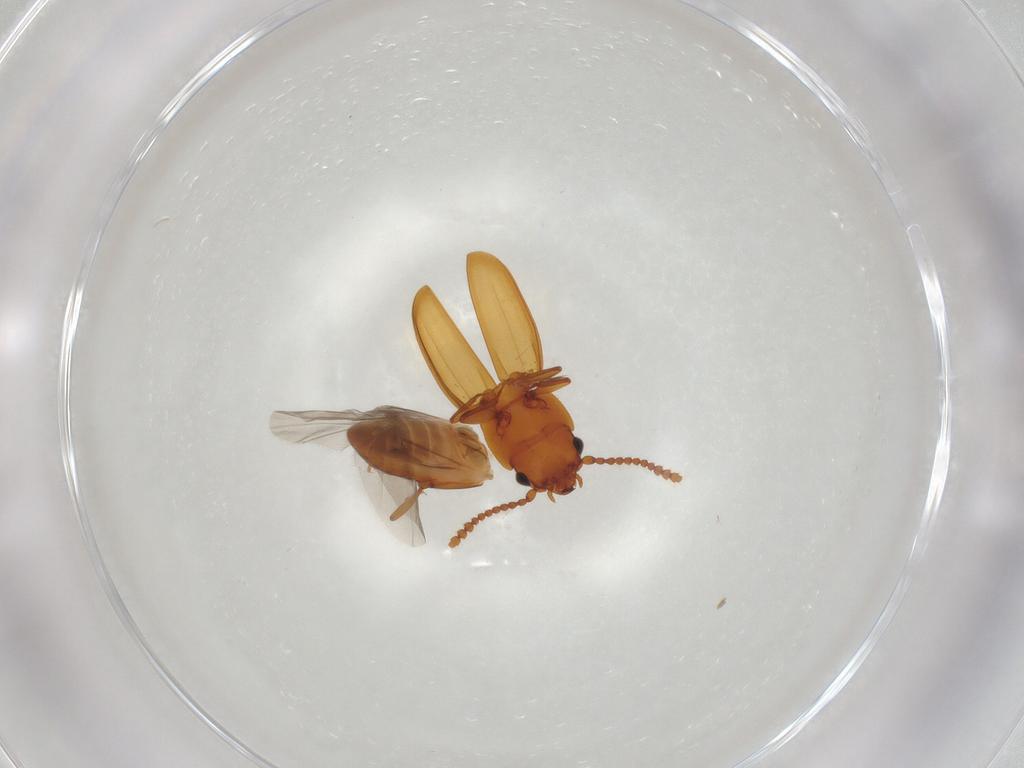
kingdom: Animalia
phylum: Arthropoda
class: Insecta
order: Coleoptera
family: Laemophloeidae
